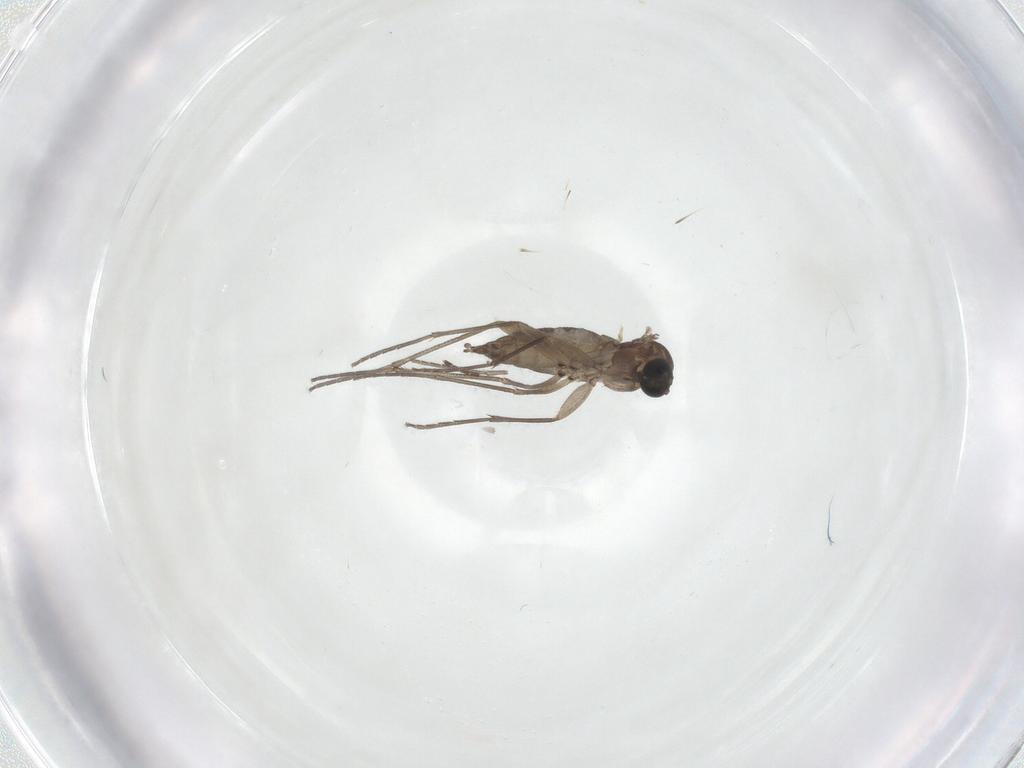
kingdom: Animalia
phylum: Arthropoda
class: Insecta
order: Diptera
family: Sciaridae
